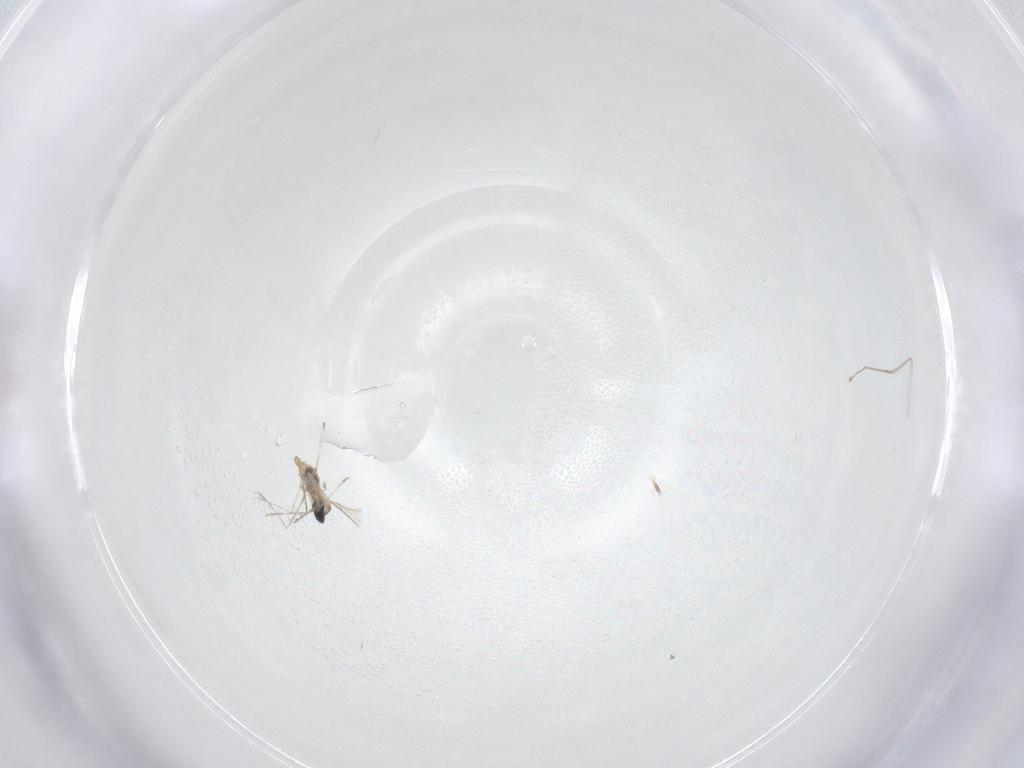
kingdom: Animalia
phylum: Arthropoda
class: Insecta
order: Diptera
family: Cecidomyiidae
